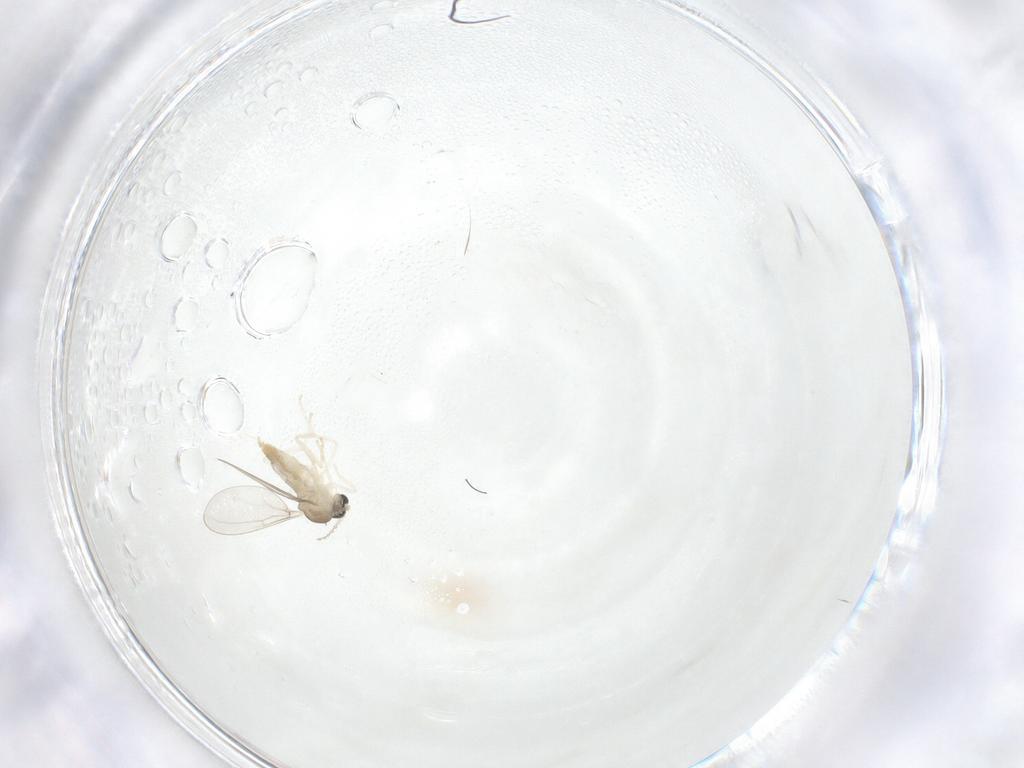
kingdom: Animalia
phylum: Arthropoda
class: Insecta
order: Diptera
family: Cecidomyiidae
